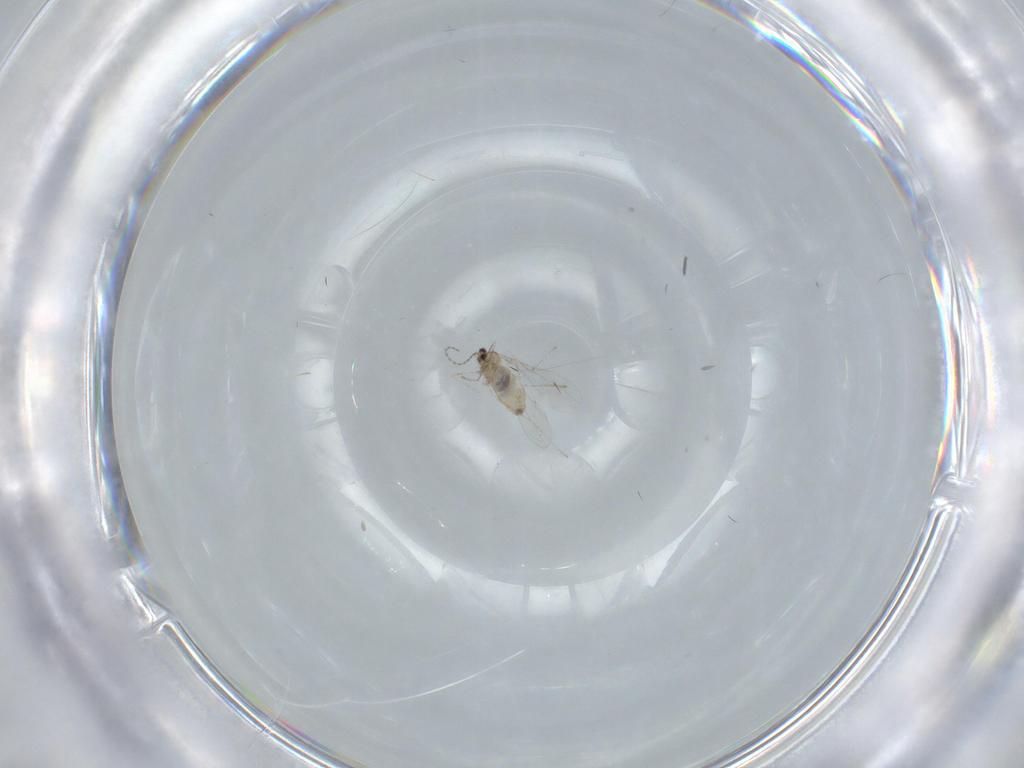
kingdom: Animalia
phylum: Arthropoda
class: Insecta
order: Diptera
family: Cecidomyiidae
